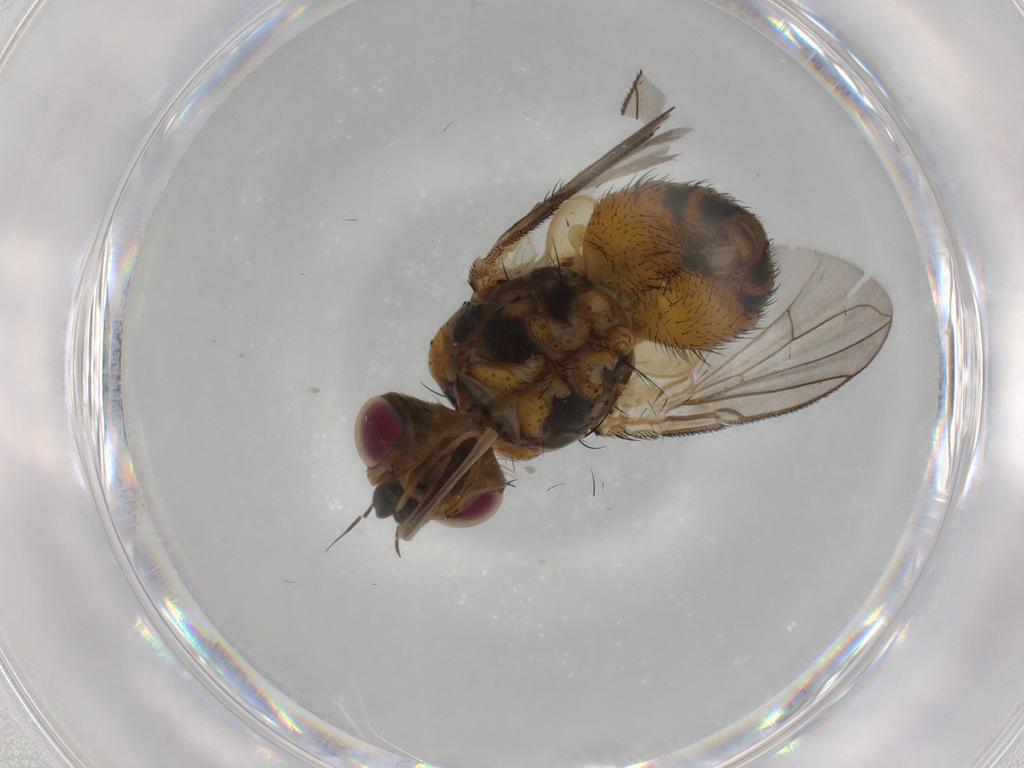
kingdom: Animalia
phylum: Arthropoda
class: Insecta
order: Diptera
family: Tachinidae
